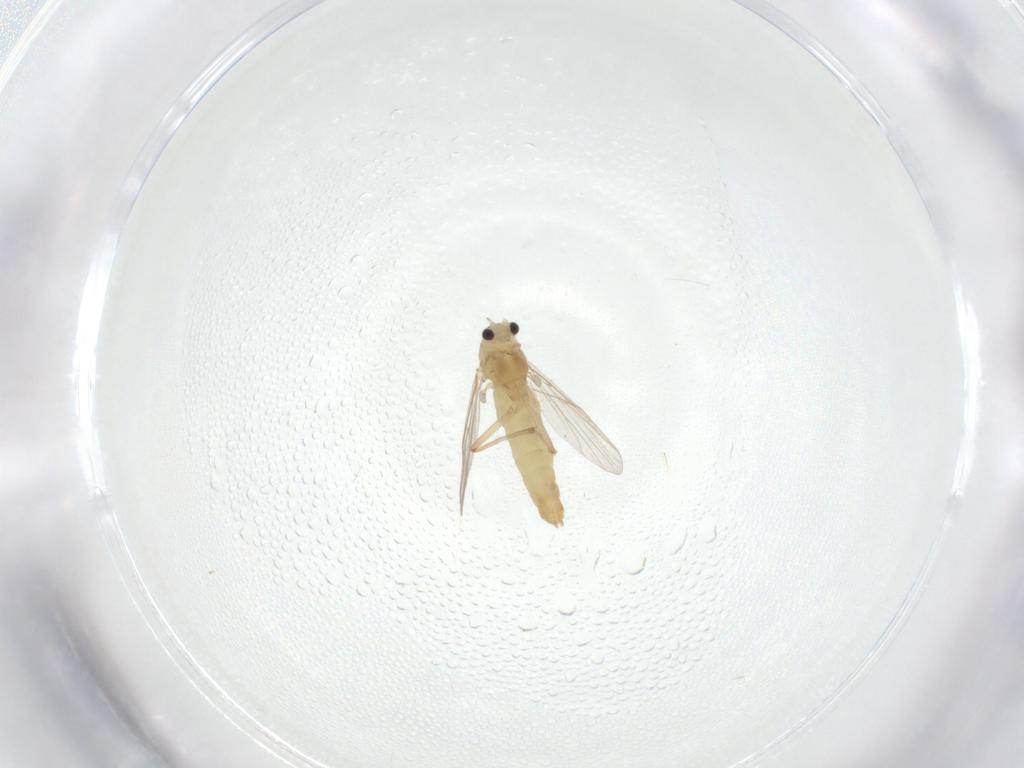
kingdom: Animalia
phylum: Arthropoda
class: Insecta
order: Diptera
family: Chironomidae
